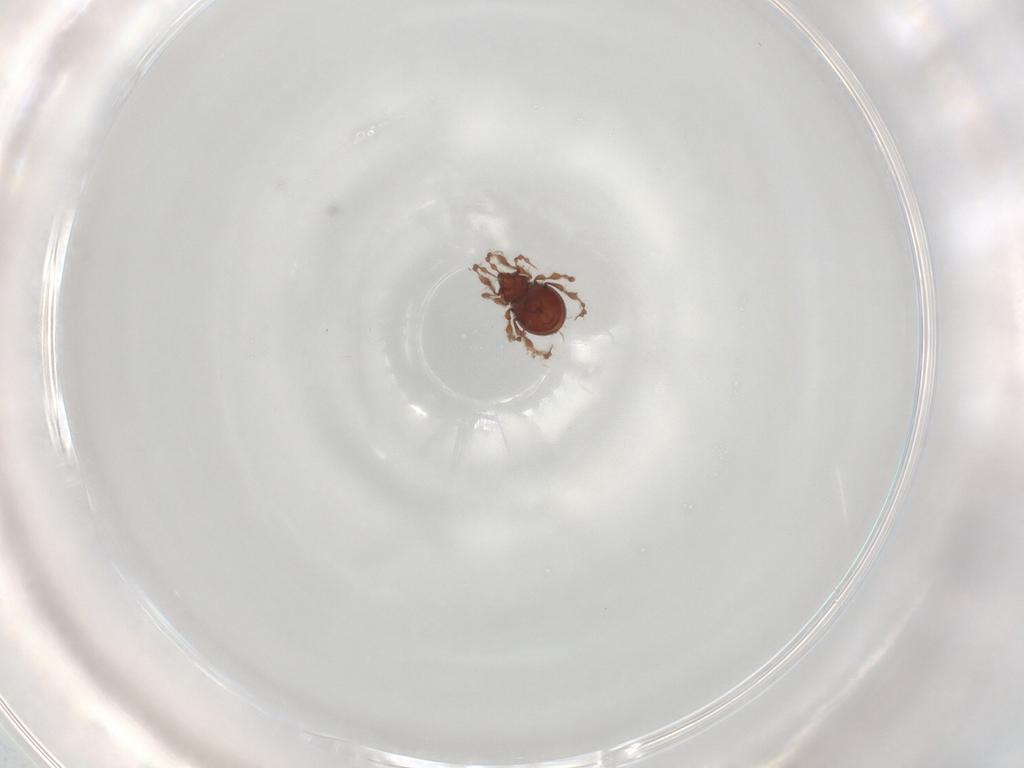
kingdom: Animalia
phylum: Arthropoda
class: Arachnida
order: Sarcoptiformes
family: Damaeidae
